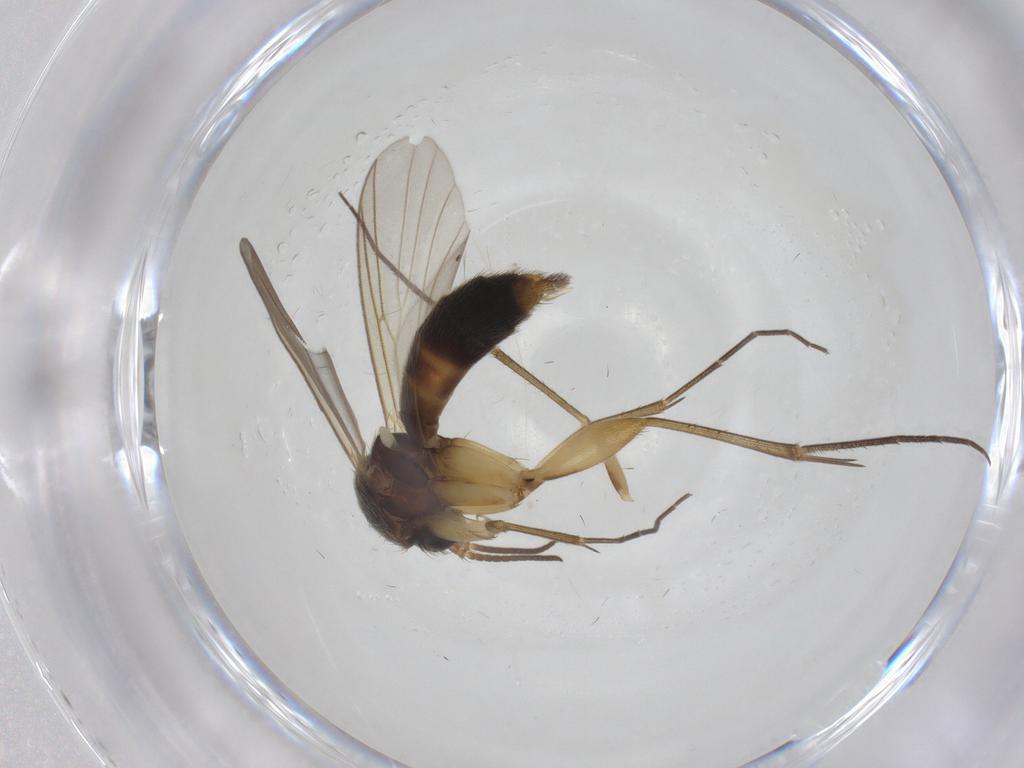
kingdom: Animalia
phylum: Arthropoda
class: Insecta
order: Diptera
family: Mycetophilidae
